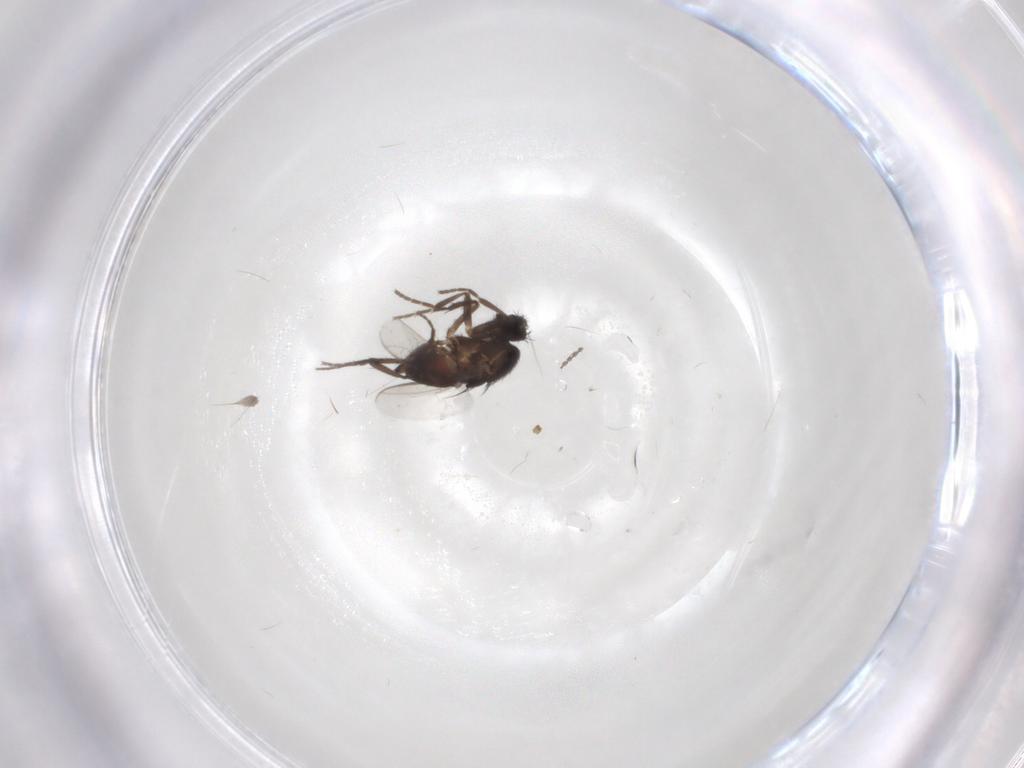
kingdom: Animalia
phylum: Arthropoda
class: Insecta
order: Diptera
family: Sphaeroceridae
